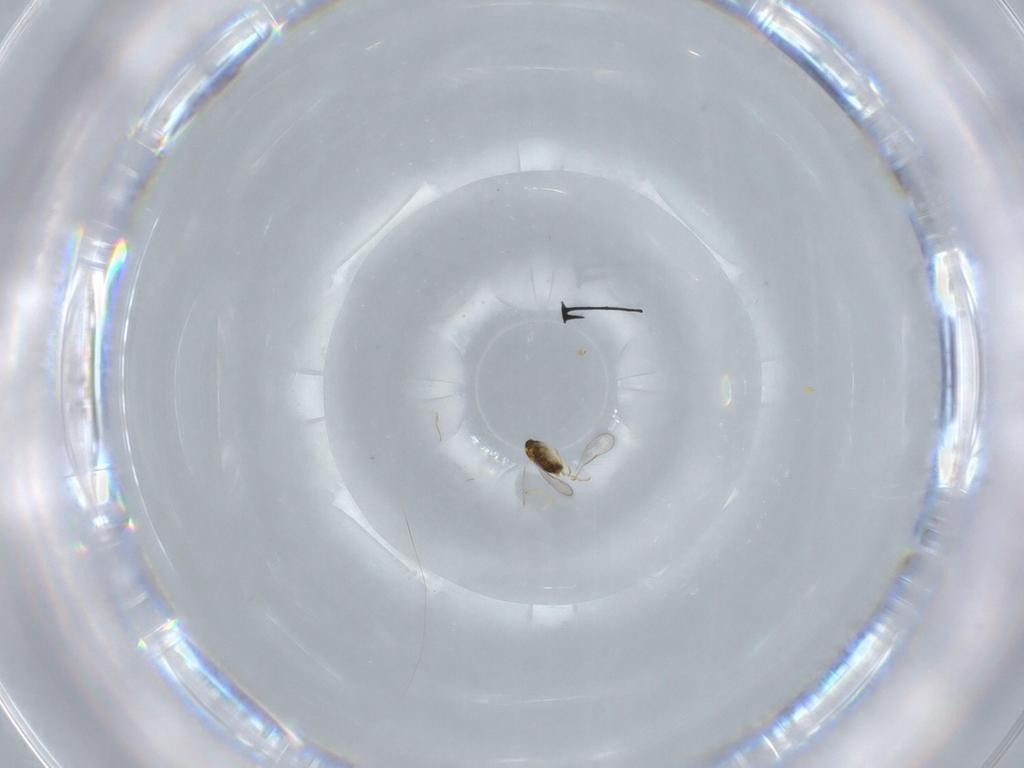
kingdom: Animalia
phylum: Arthropoda
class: Insecta
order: Hymenoptera
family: Aphelinidae
